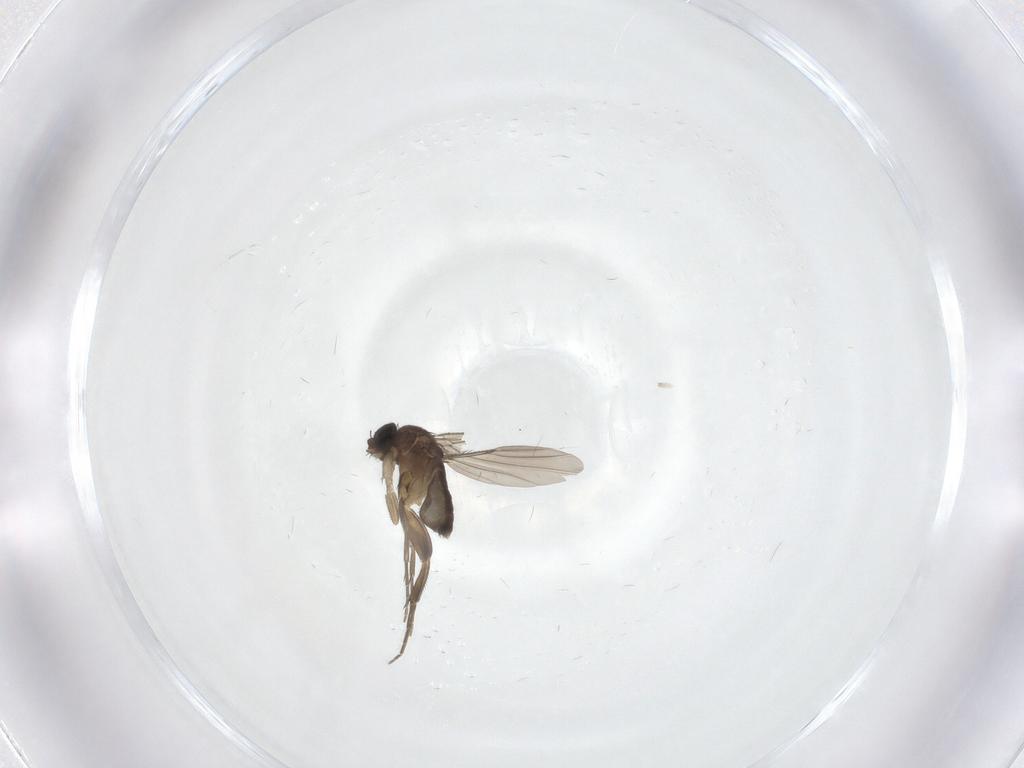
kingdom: Animalia
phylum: Arthropoda
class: Insecta
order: Diptera
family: Phoridae
